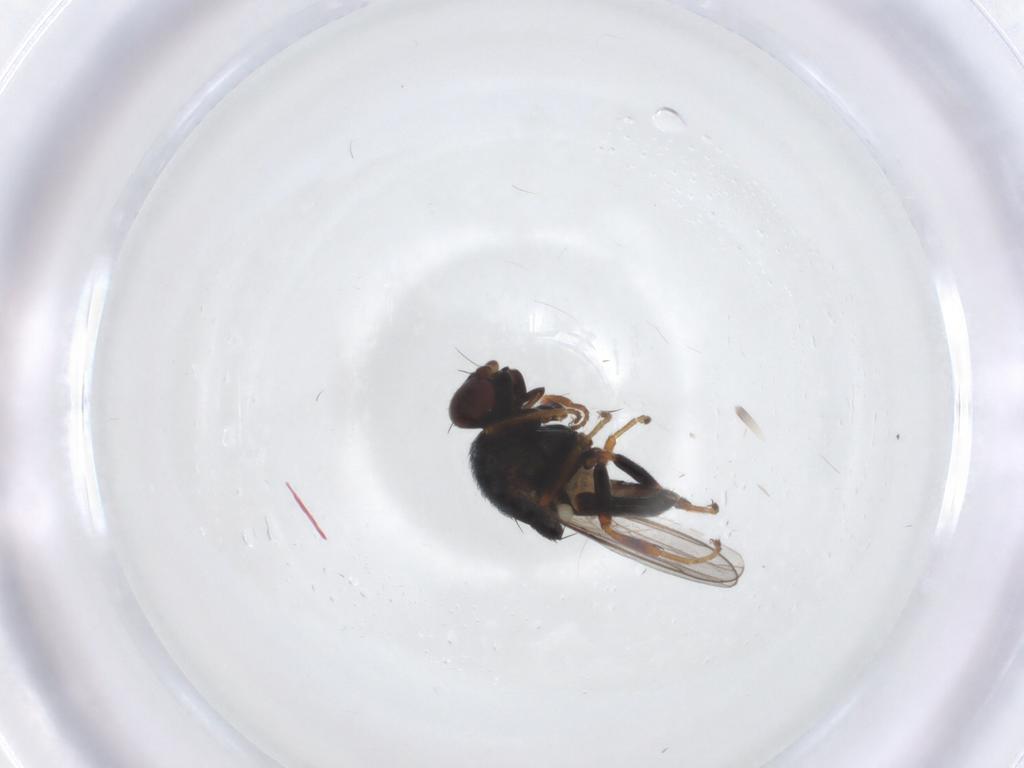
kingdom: Animalia
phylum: Arthropoda
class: Insecta
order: Diptera
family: Chloropidae
